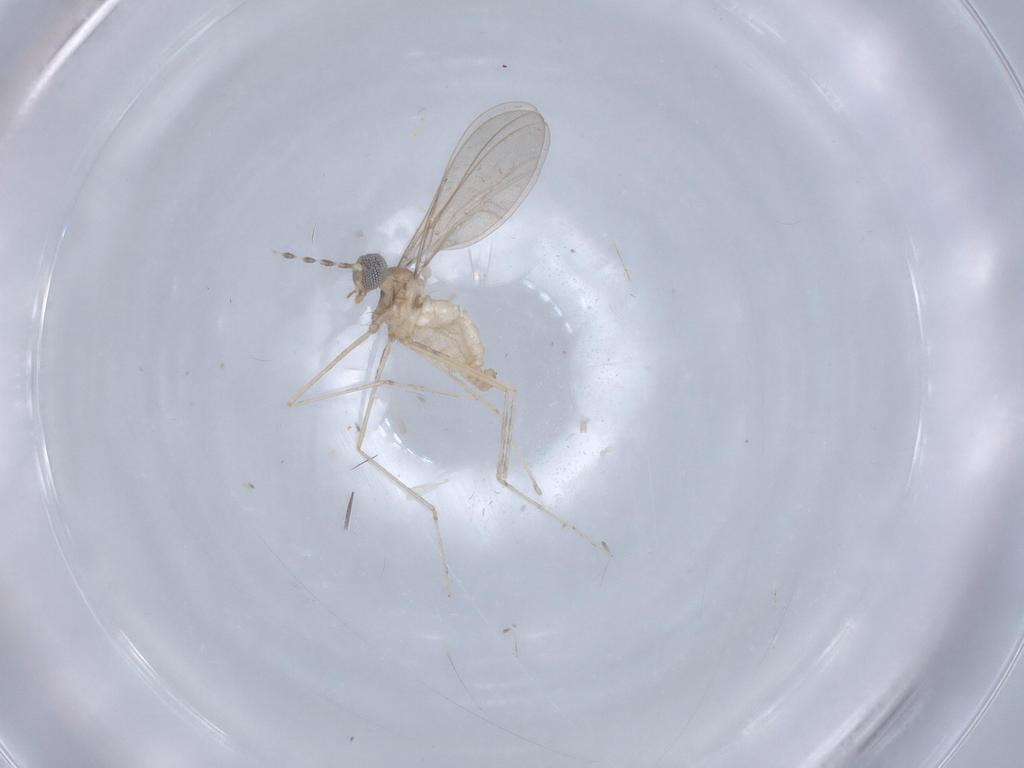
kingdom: Animalia
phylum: Arthropoda
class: Insecta
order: Diptera
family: Cecidomyiidae
